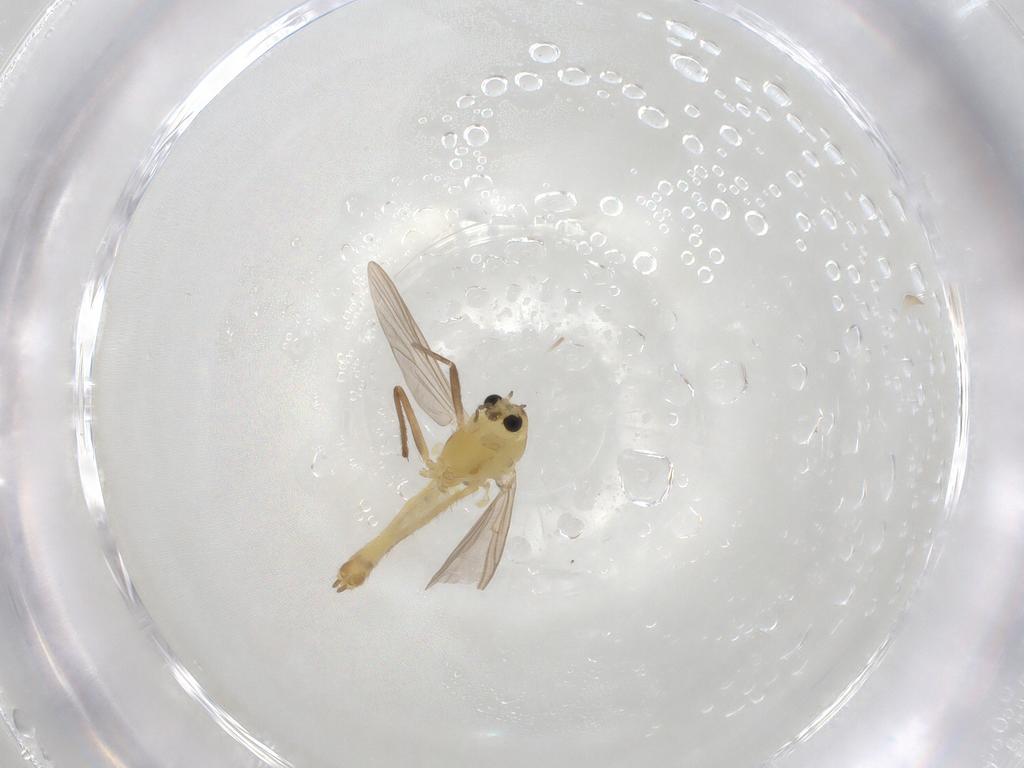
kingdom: Animalia
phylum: Arthropoda
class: Insecta
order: Diptera
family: Chironomidae
